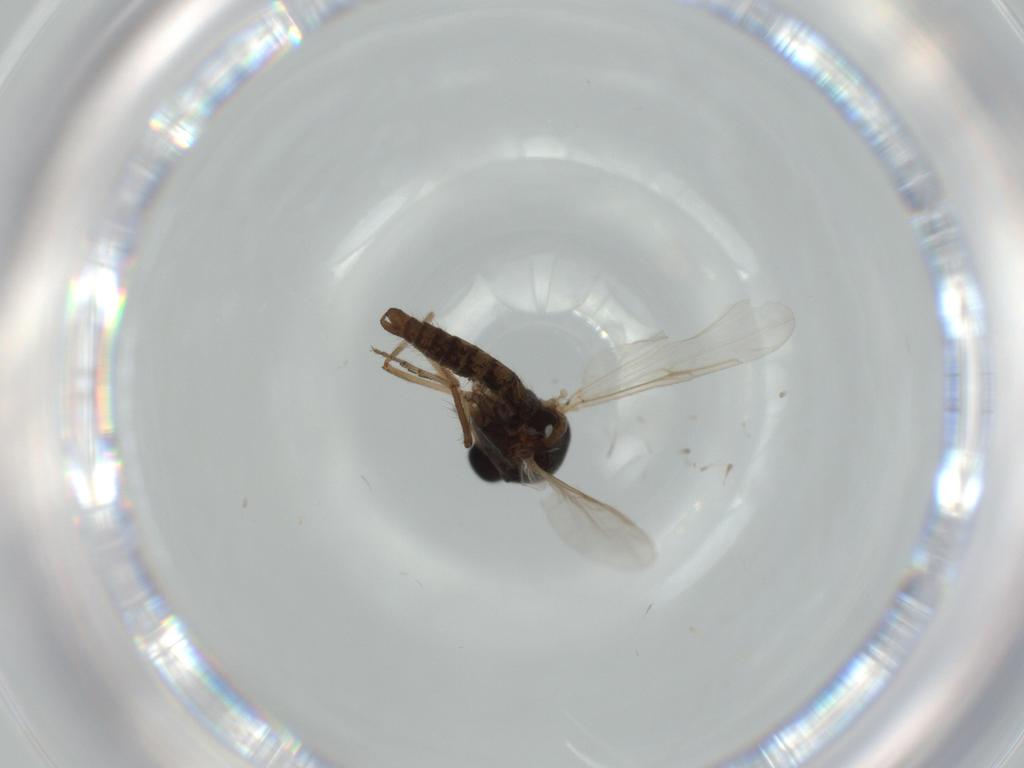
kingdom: Animalia
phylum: Arthropoda
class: Insecta
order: Diptera
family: Ceratopogonidae
